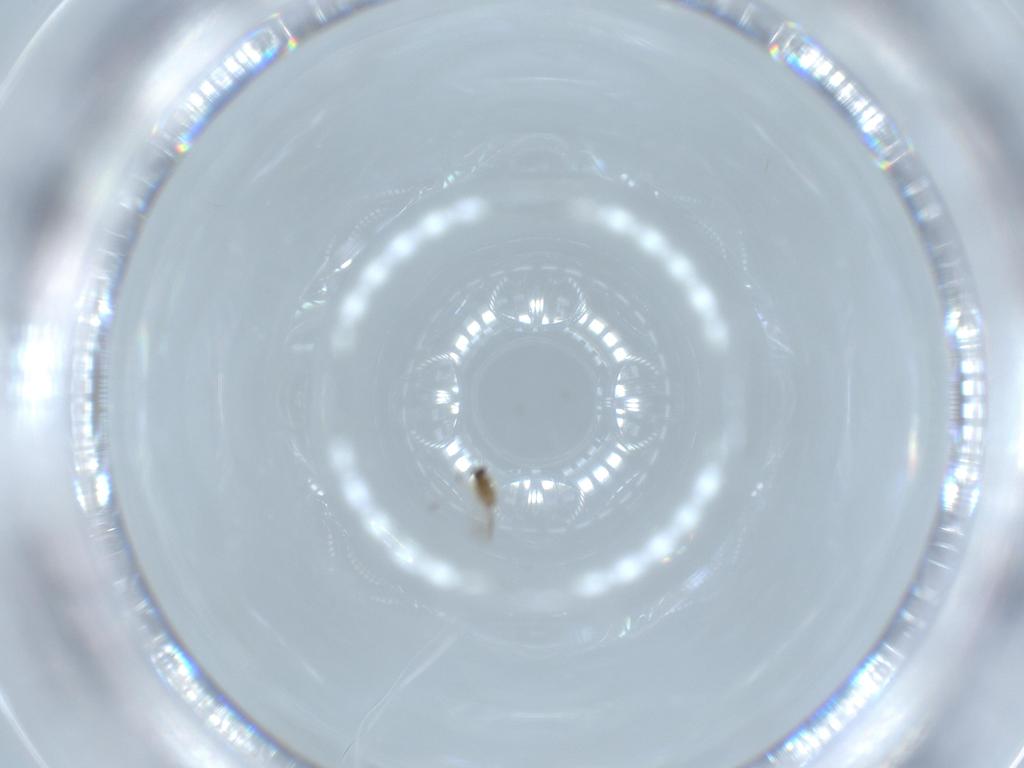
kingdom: Animalia
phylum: Arthropoda
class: Insecta
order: Hymenoptera
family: Mymaridae
